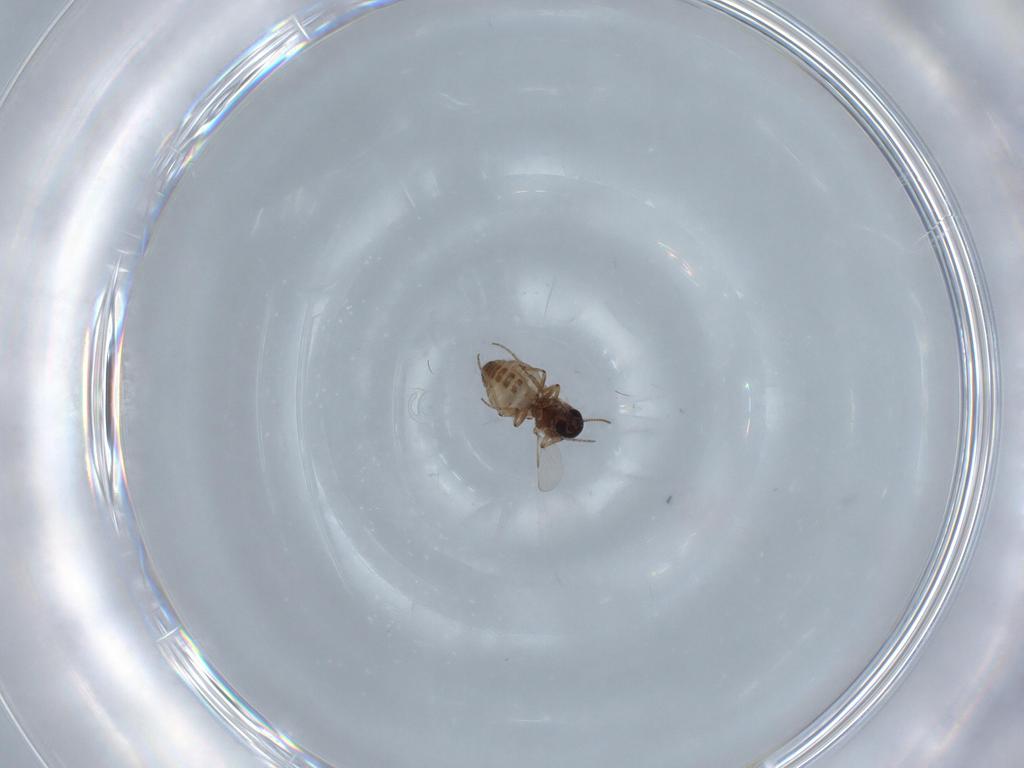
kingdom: Animalia
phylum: Arthropoda
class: Insecta
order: Diptera
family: Ceratopogonidae
